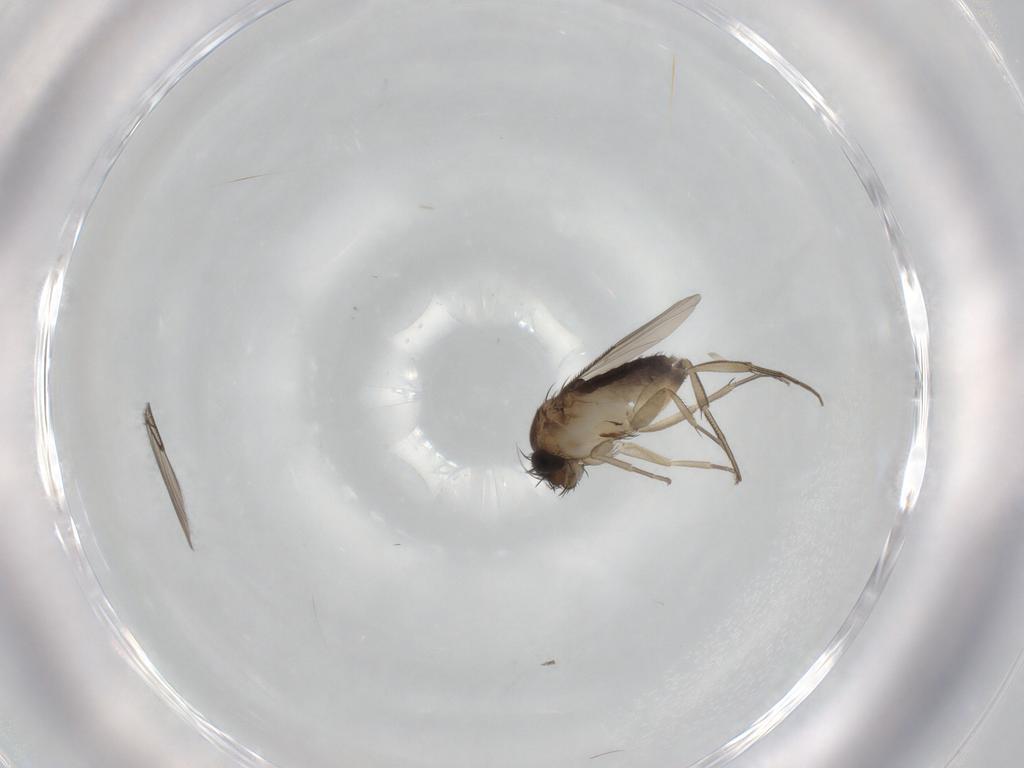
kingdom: Animalia
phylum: Arthropoda
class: Insecta
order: Diptera
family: Phoridae
